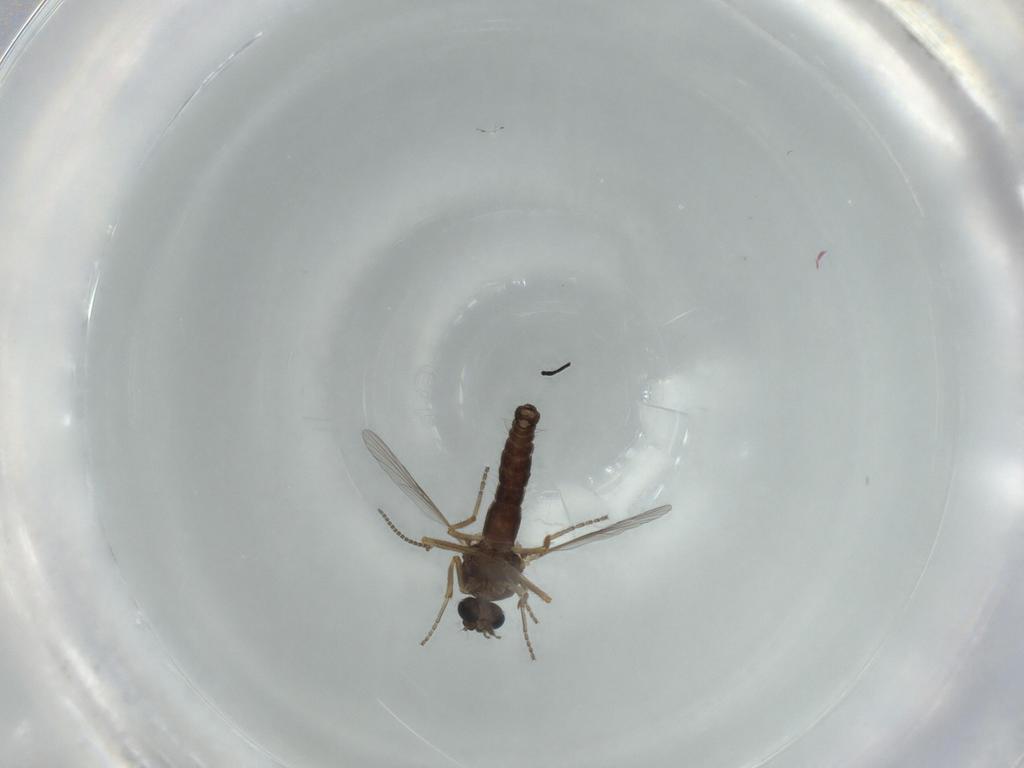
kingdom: Animalia
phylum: Arthropoda
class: Insecta
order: Diptera
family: Ceratopogonidae
